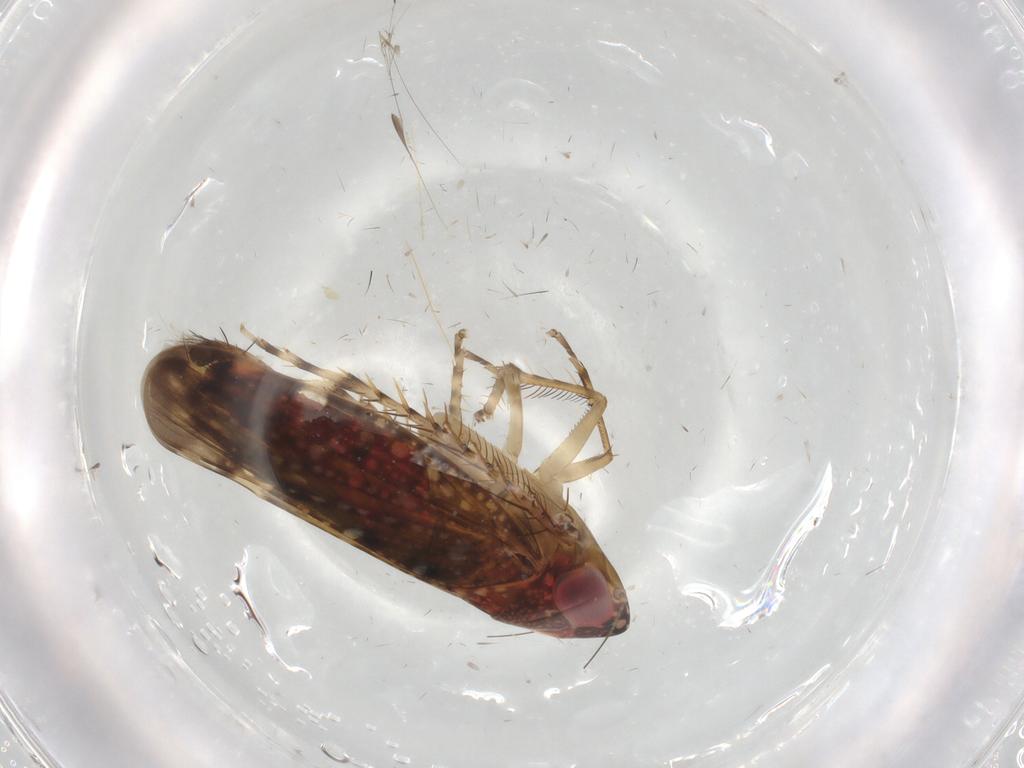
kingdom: Animalia
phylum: Arthropoda
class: Insecta
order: Hemiptera
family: Cicadellidae
